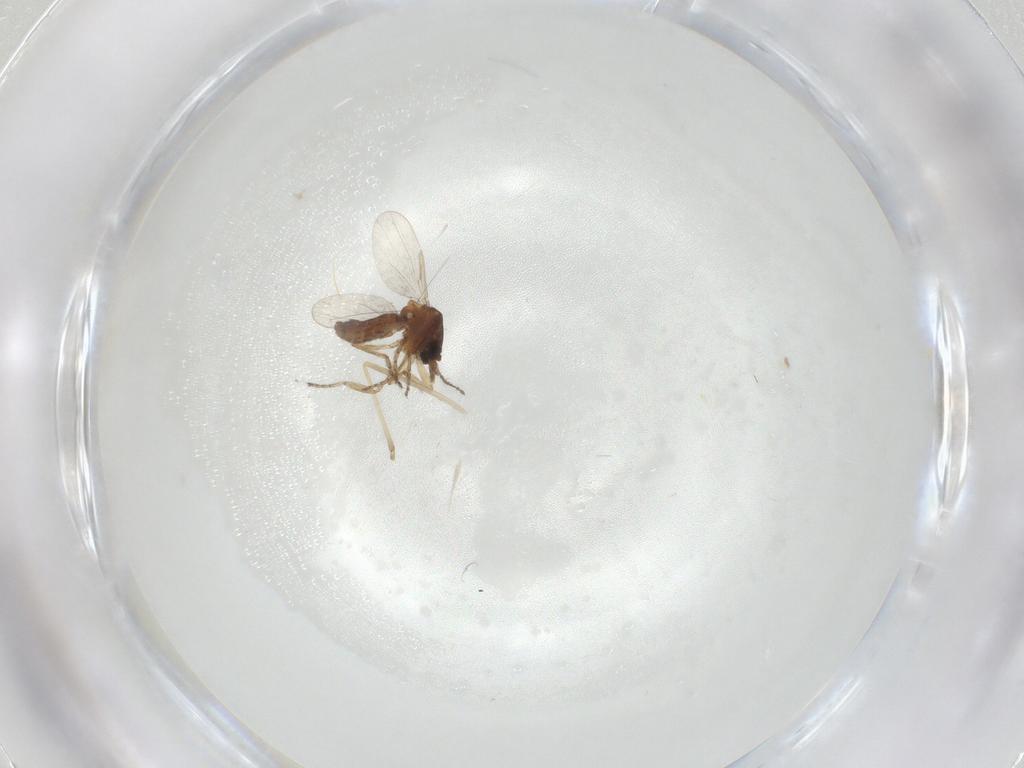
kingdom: Animalia
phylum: Arthropoda
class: Insecta
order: Diptera
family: Ceratopogonidae
